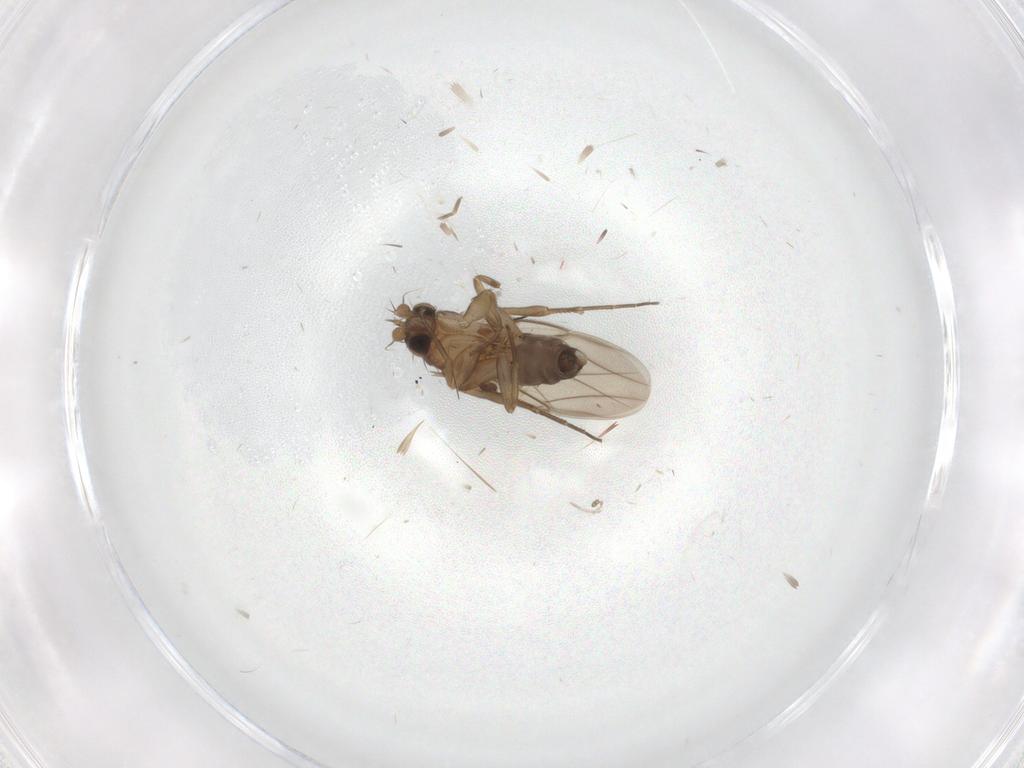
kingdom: Animalia
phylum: Arthropoda
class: Insecta
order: Diptera
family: Phoridae
